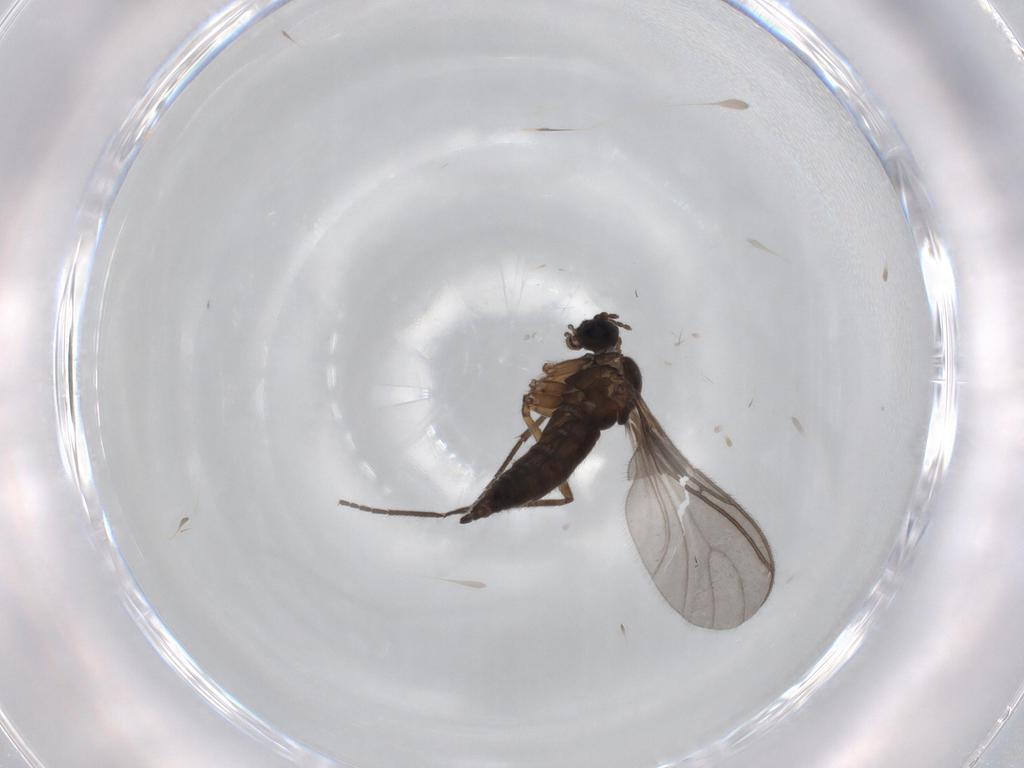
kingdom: Animalia
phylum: Arthropoda
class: Insecta
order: Diptera
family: Sciaridae
